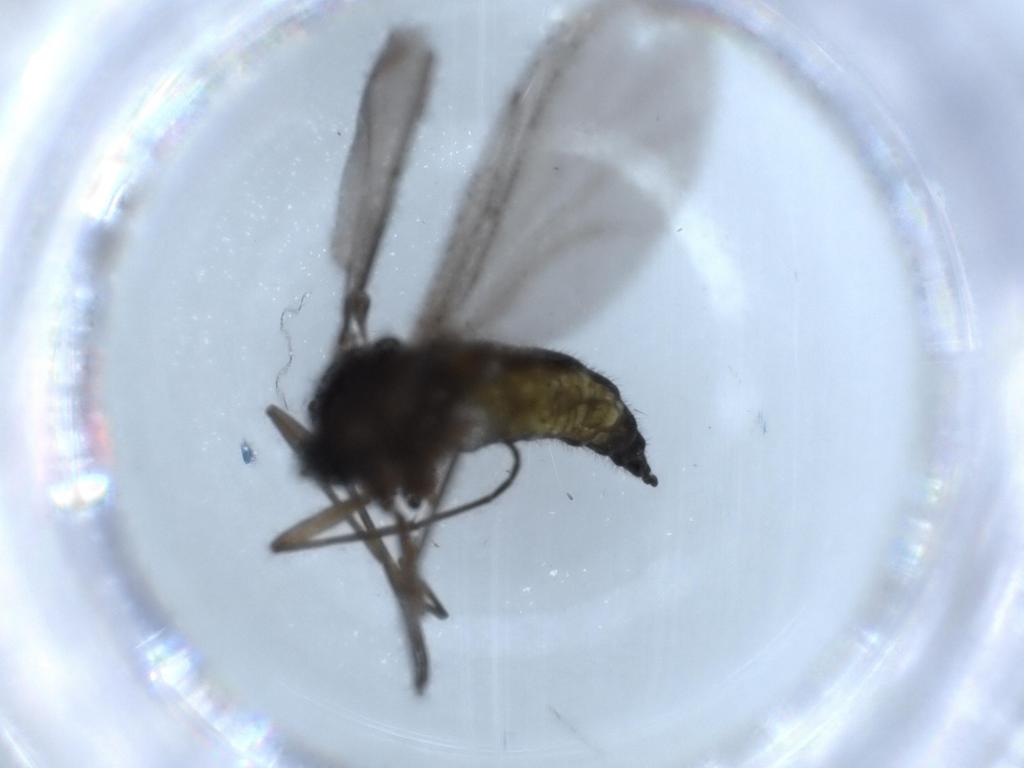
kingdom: Animalia
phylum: Arthropoda
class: Insecta
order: Diptera
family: Sciaridae
